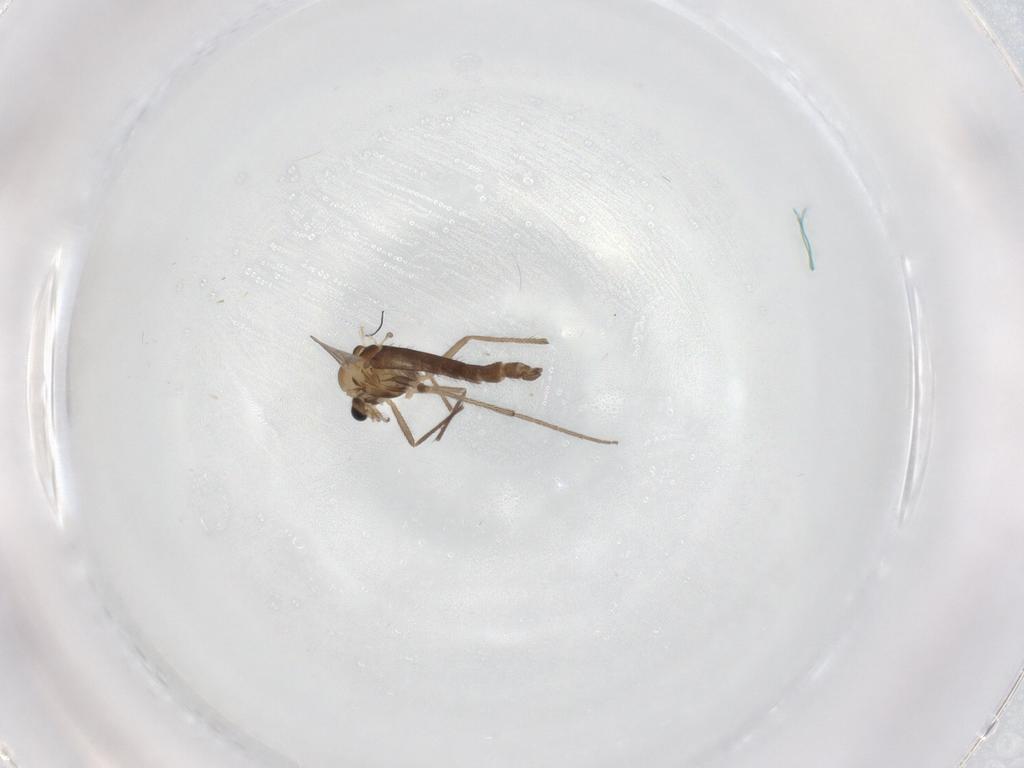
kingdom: Animalia
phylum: Arthropoda
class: Insecta
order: Diptera
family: Chironomidae
